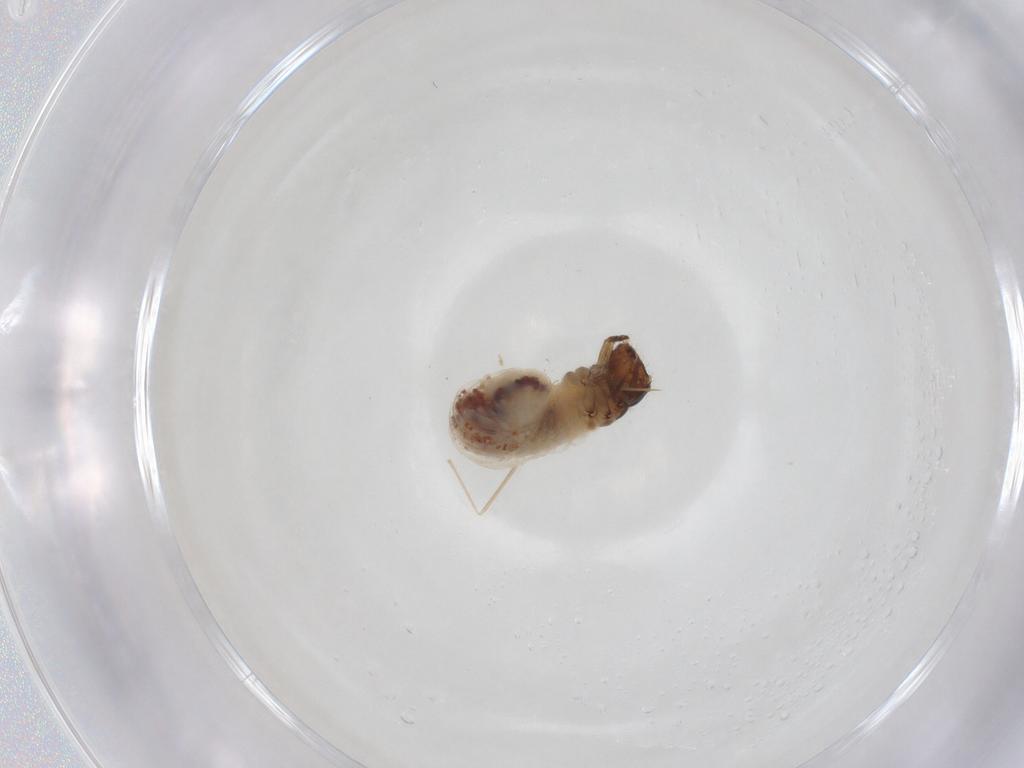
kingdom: Animalia
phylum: Arthropoda
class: Insecta
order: Coleoptera
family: Chrysomelidae
